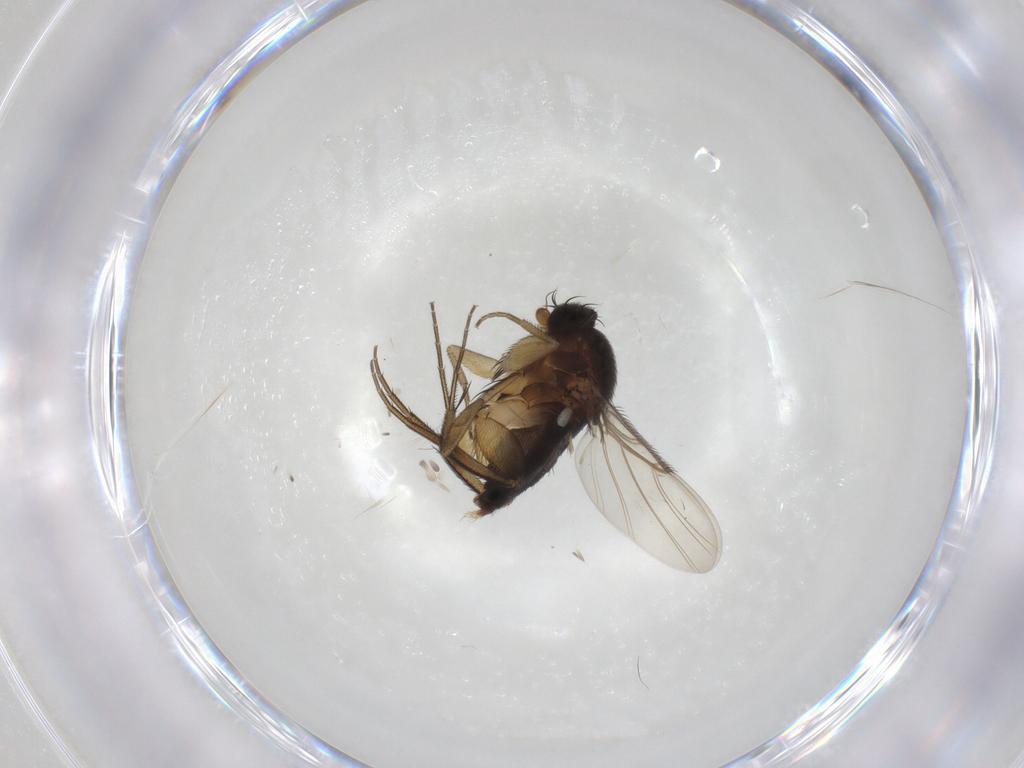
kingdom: Animalia
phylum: Arthropoda
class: Insecta
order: Diptera
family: Phoridae
